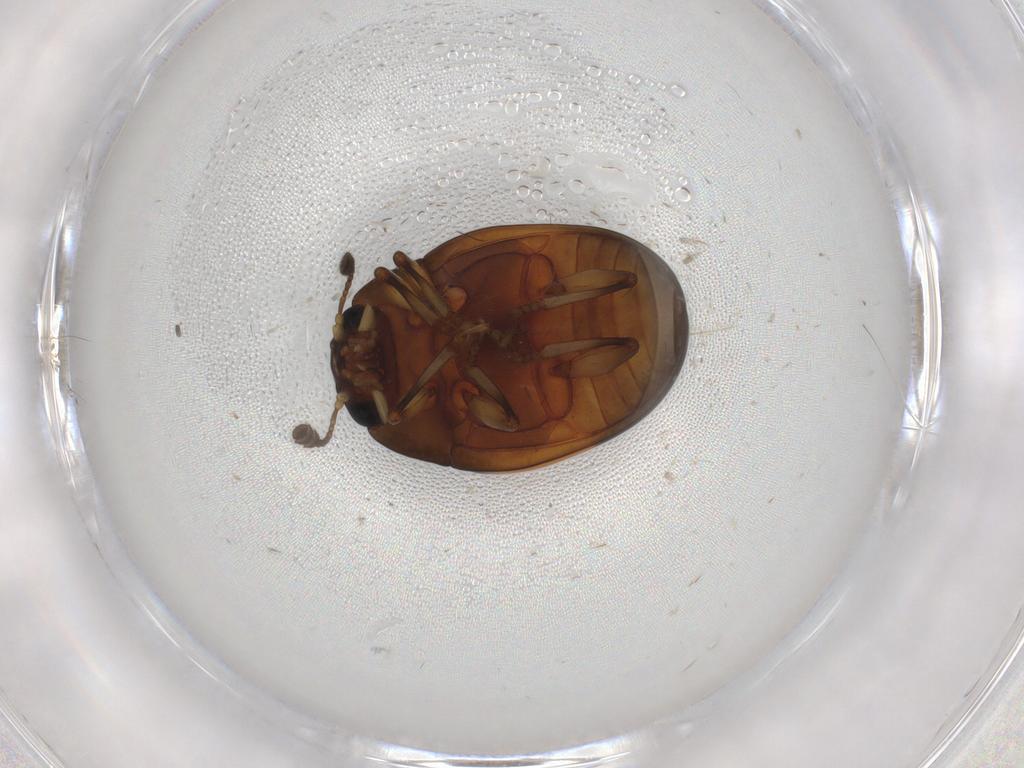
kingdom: Animalia
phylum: Arthropoda
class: Insecta
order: Coleoptera
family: Erotylidae
